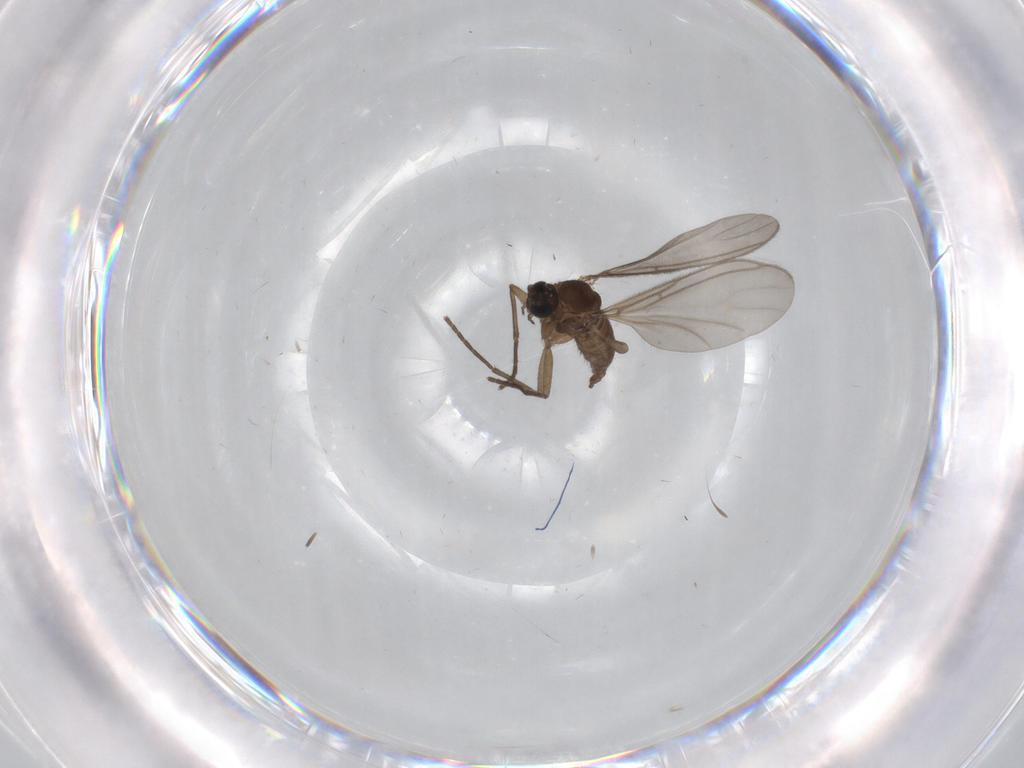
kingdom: Animalia
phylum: Arthropoda
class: Insecta
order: Diptera
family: Sciaridae
